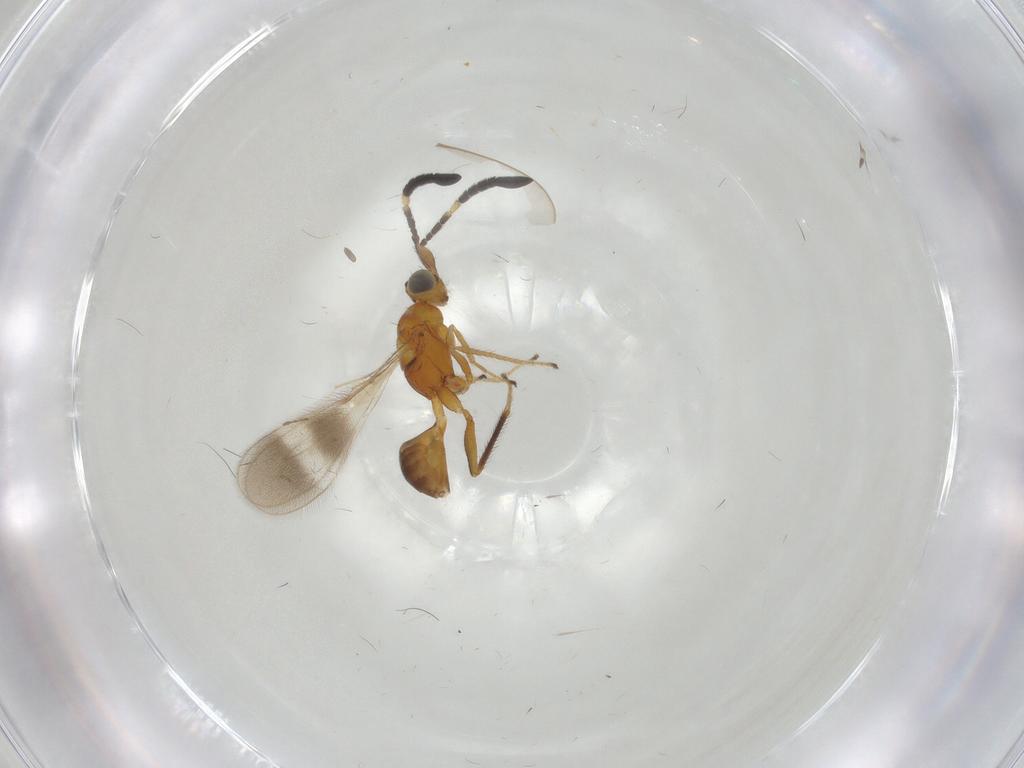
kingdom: Animalia
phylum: Arthropoda
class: Insecta
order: Hymenoptera
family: Mymaridae
